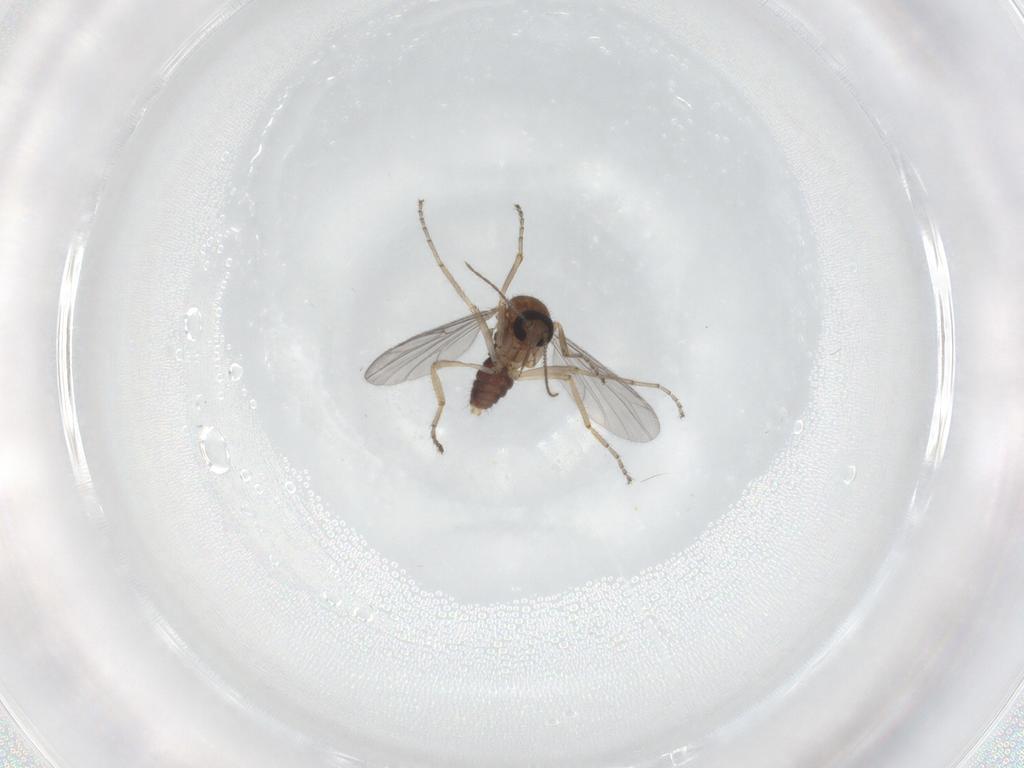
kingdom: Animalia
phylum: Arthropoda
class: Insecta
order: Diptera
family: Ceratopogonidae
